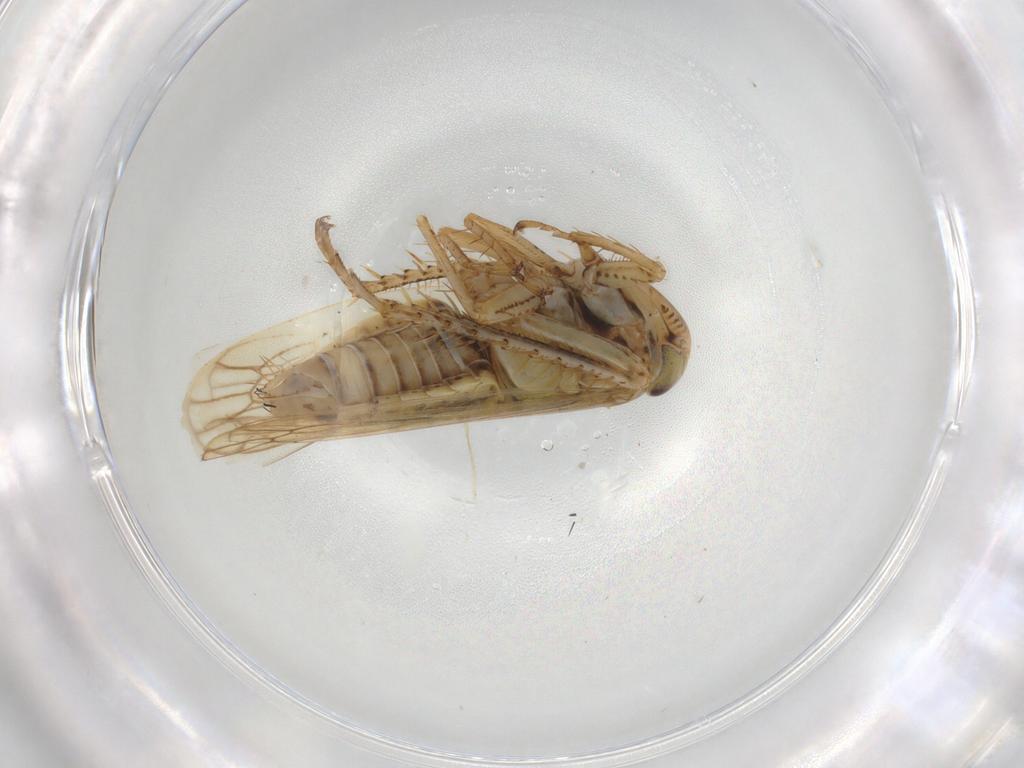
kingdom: Animalia
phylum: Arthropoda
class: Insecta
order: Hemiptera
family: Cicadellidae
